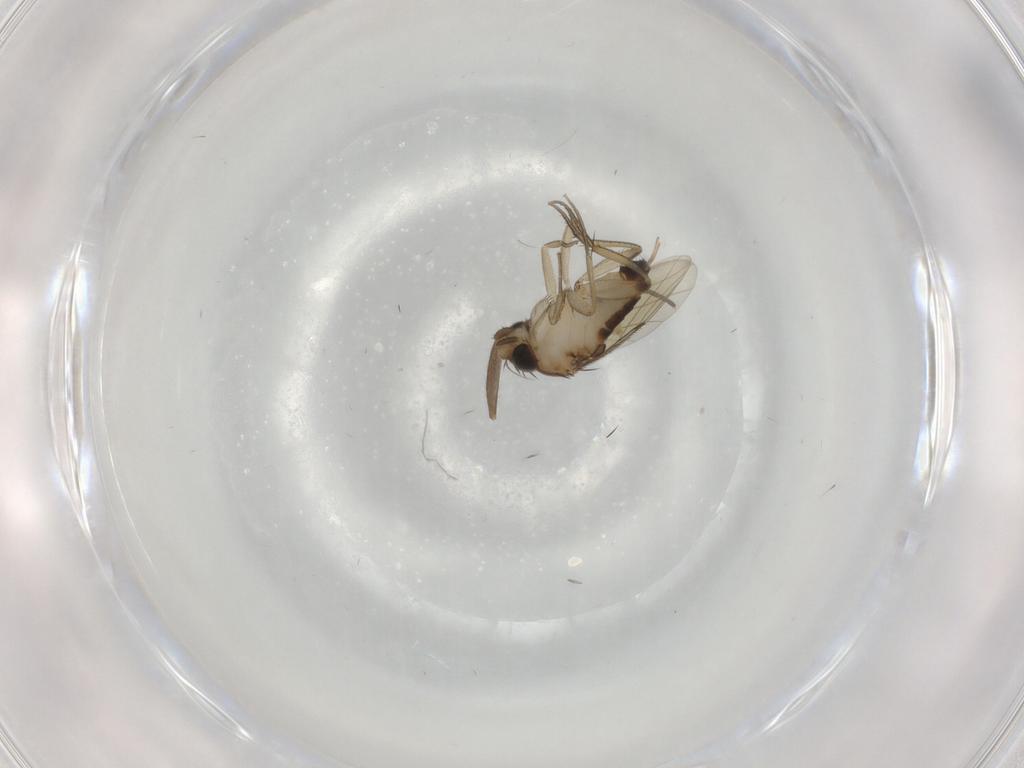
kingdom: Animalia
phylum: Arthropoda
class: Insecta
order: Diptera
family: Phoridae
